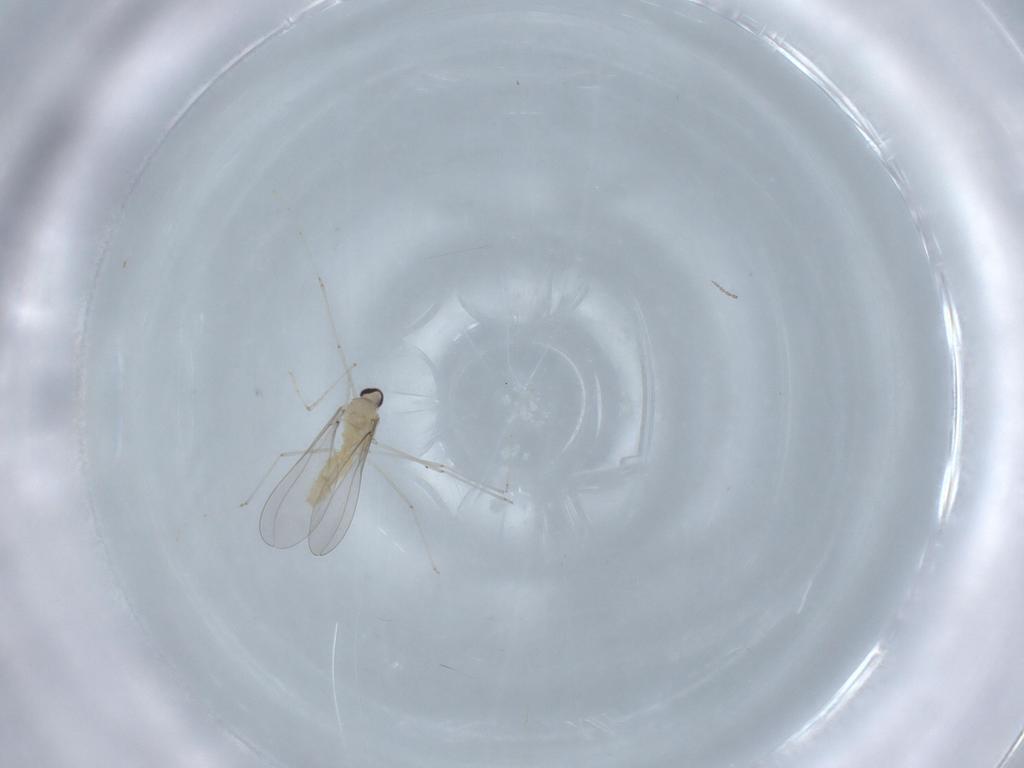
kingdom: Animalia
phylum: Arthropoda
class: Insecta
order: Diptera
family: Cecidomyiidae
